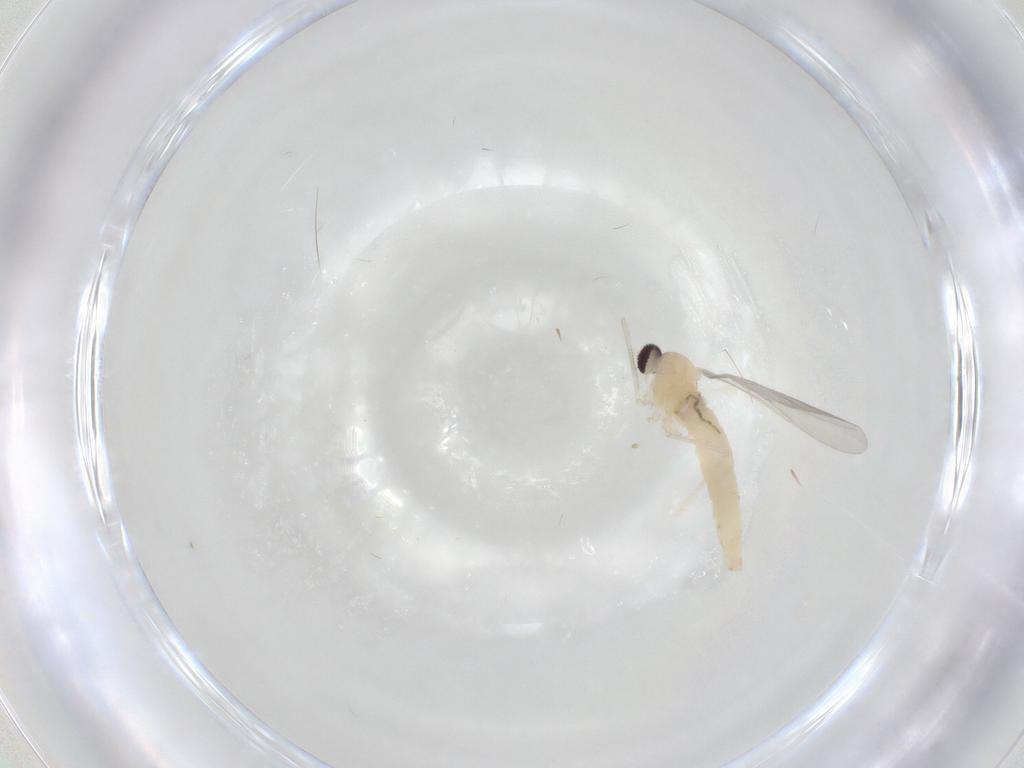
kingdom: Animalia
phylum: Arthropoda
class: Insecta
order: Diptera
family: Cecidomyiidae
